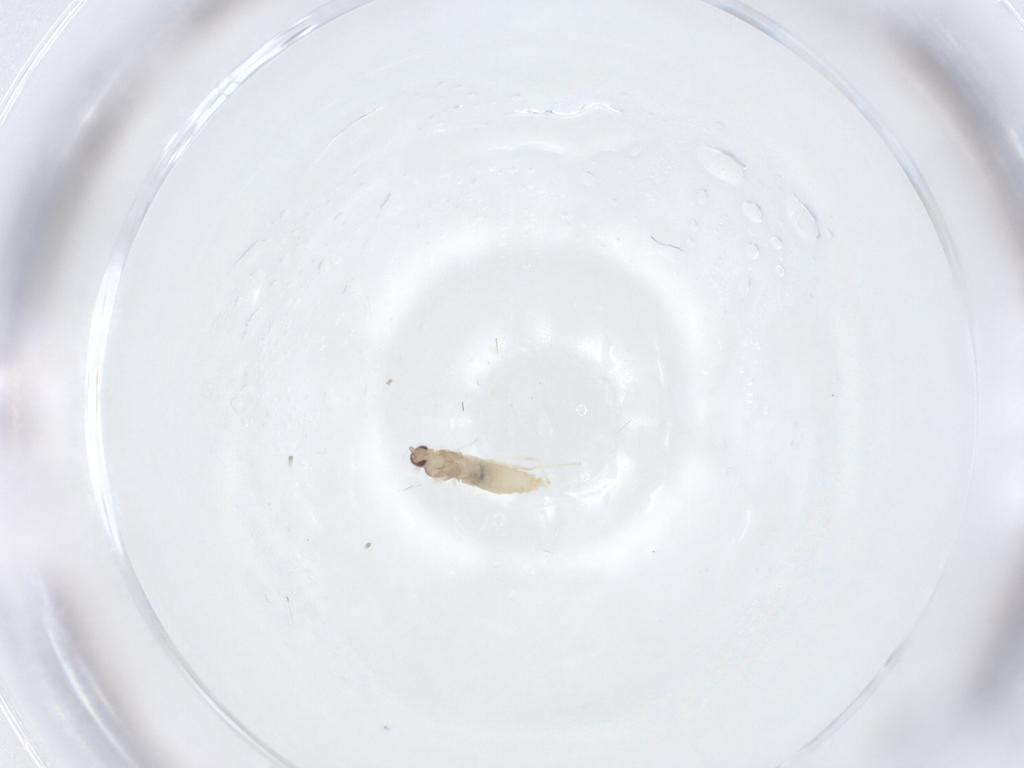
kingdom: Animalia
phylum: Arthropoda
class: Insecta
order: Diptera
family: Cecidomyiidae
